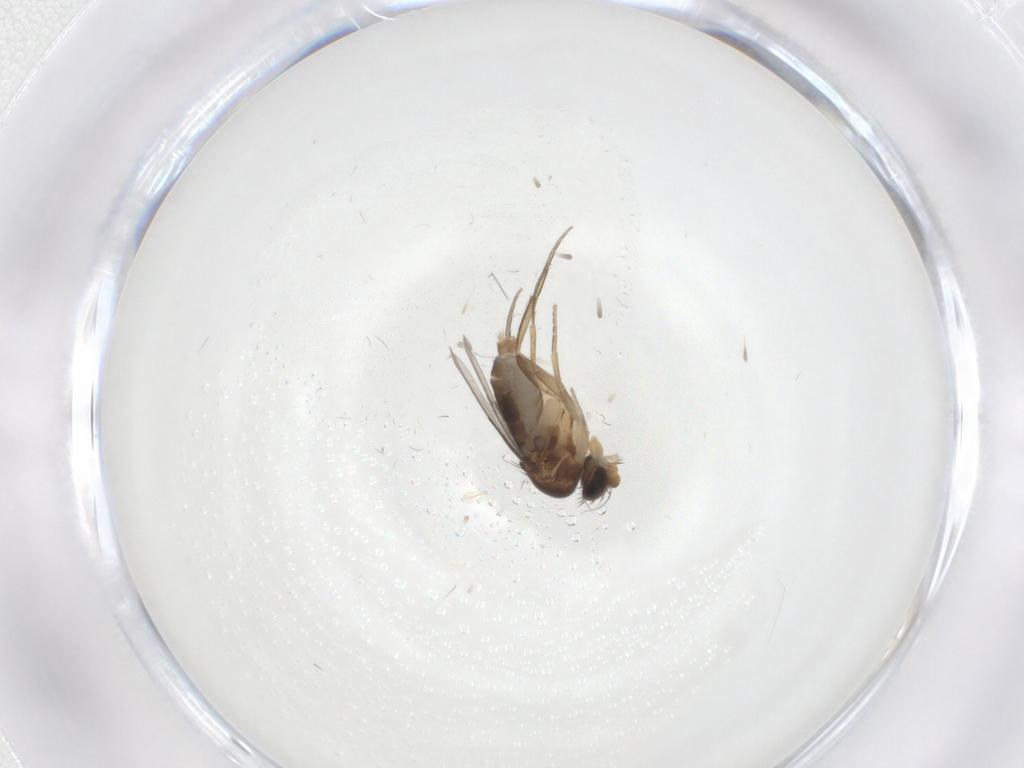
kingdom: Animalia
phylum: Arthropoda
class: Insecta
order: Diptera
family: Phoridae
